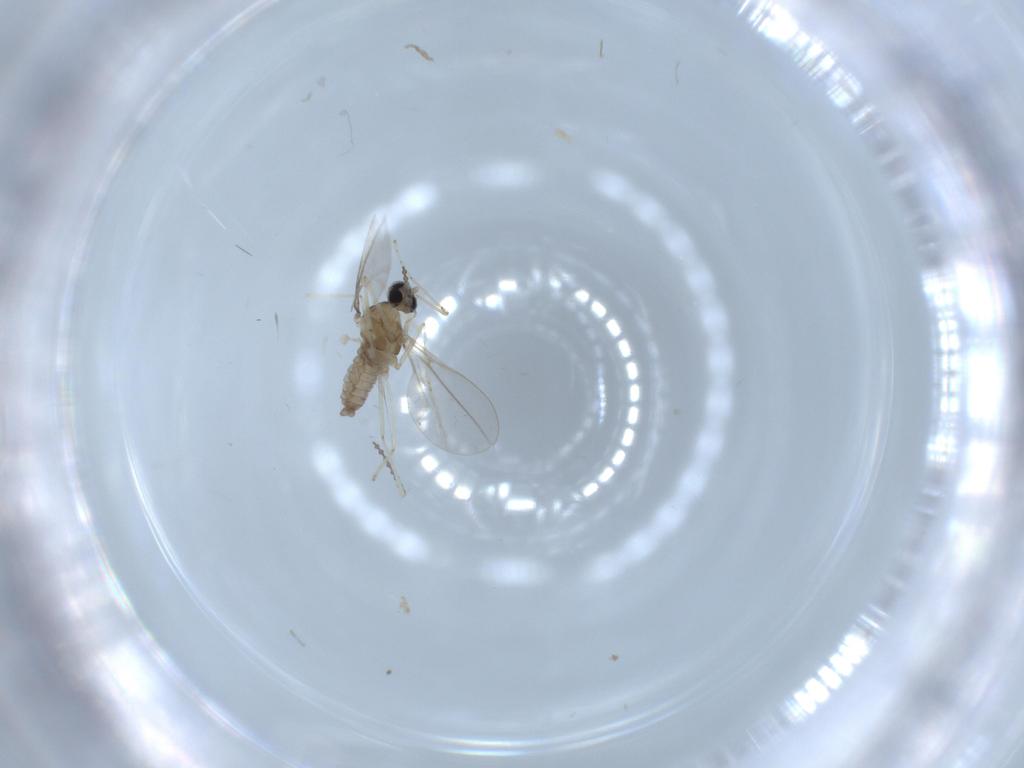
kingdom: Animalia
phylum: Arthropoda
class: Insecta
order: Diptera
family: Cecidomyiidae
